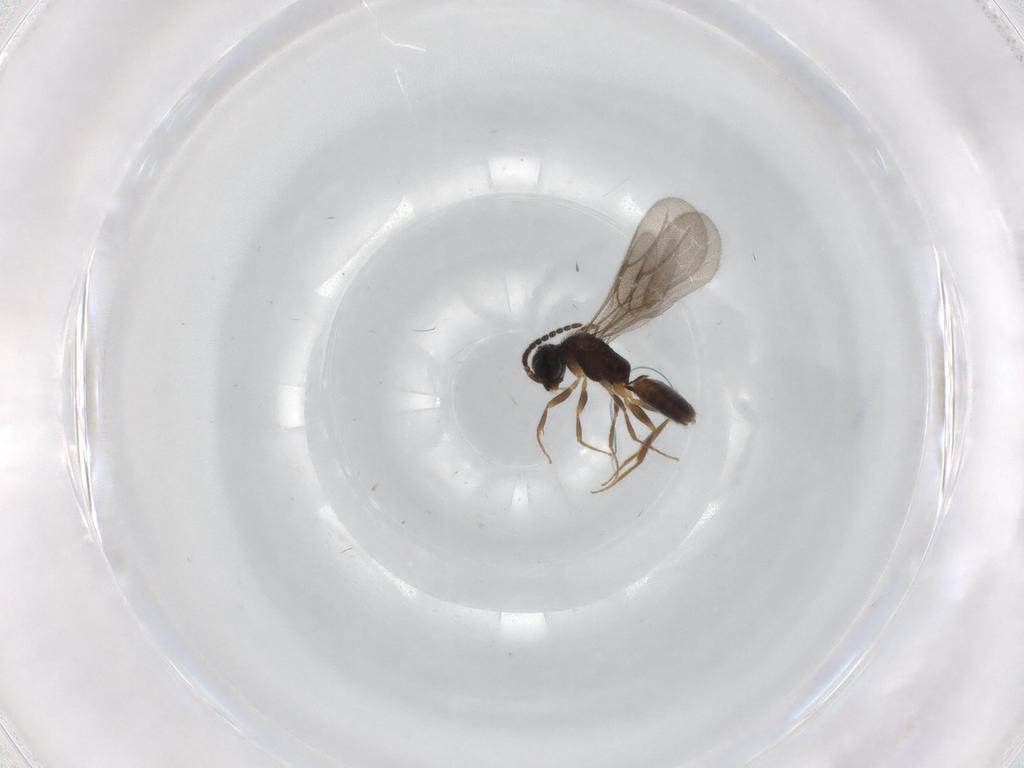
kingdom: Animalia
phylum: Arthropoda
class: Insecta
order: Hymenoptera
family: Bethylidae
